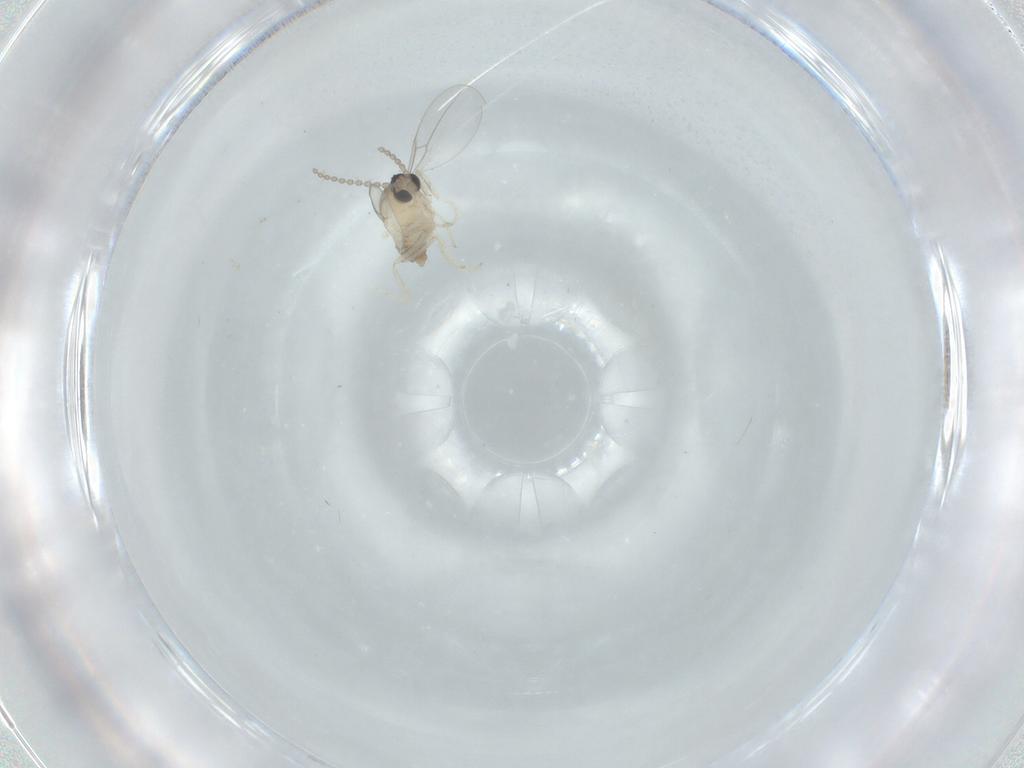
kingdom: Animalia
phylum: Arthropoda
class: Insecta
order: Diptera
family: Cecidomyiidae
